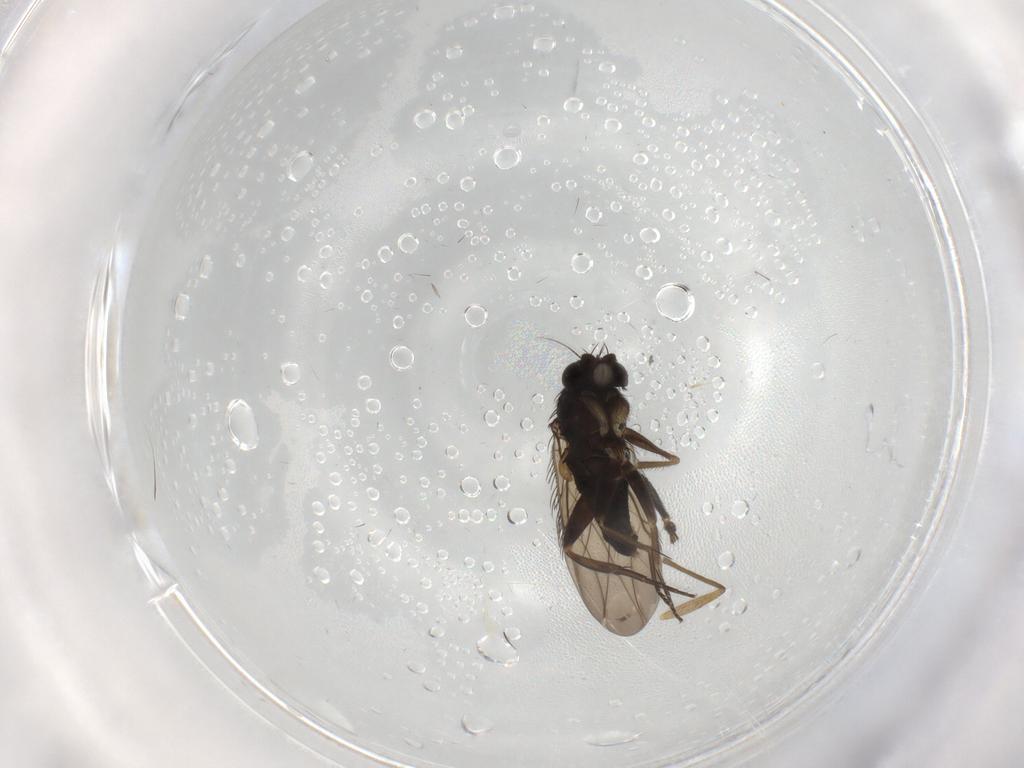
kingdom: Animalia
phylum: Arthropoda
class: Insecta
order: Diptera
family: Phoridae
